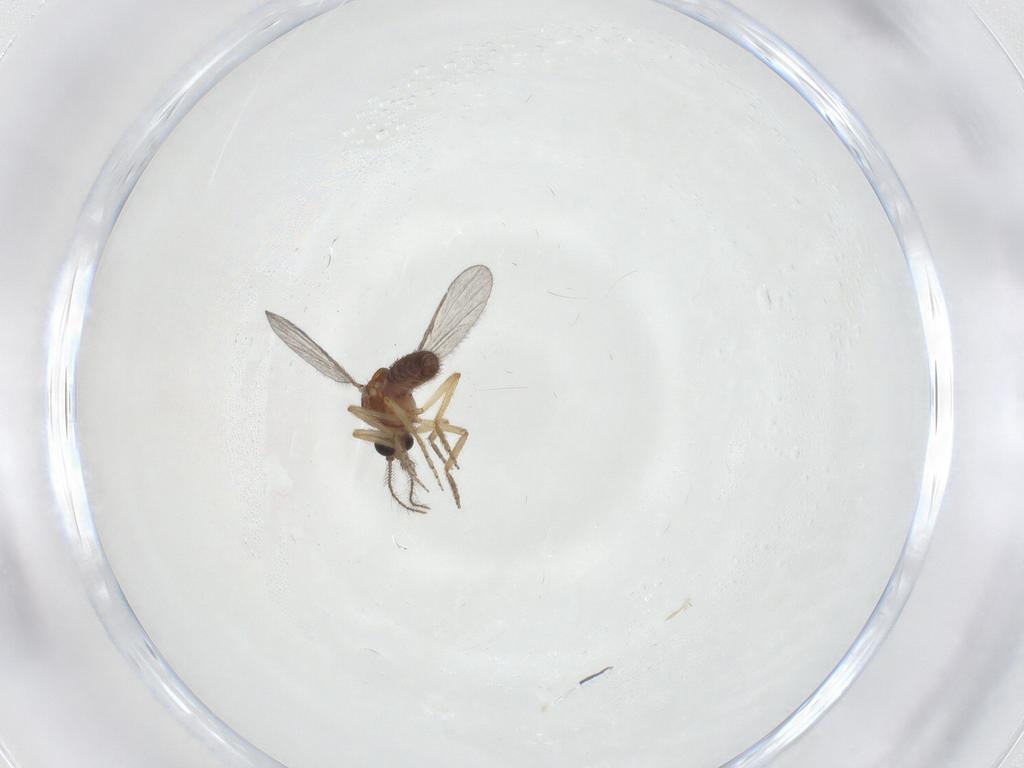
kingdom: Animalia
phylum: Arthropoda
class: Insecta
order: Diptera
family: Ceratopogonidae
